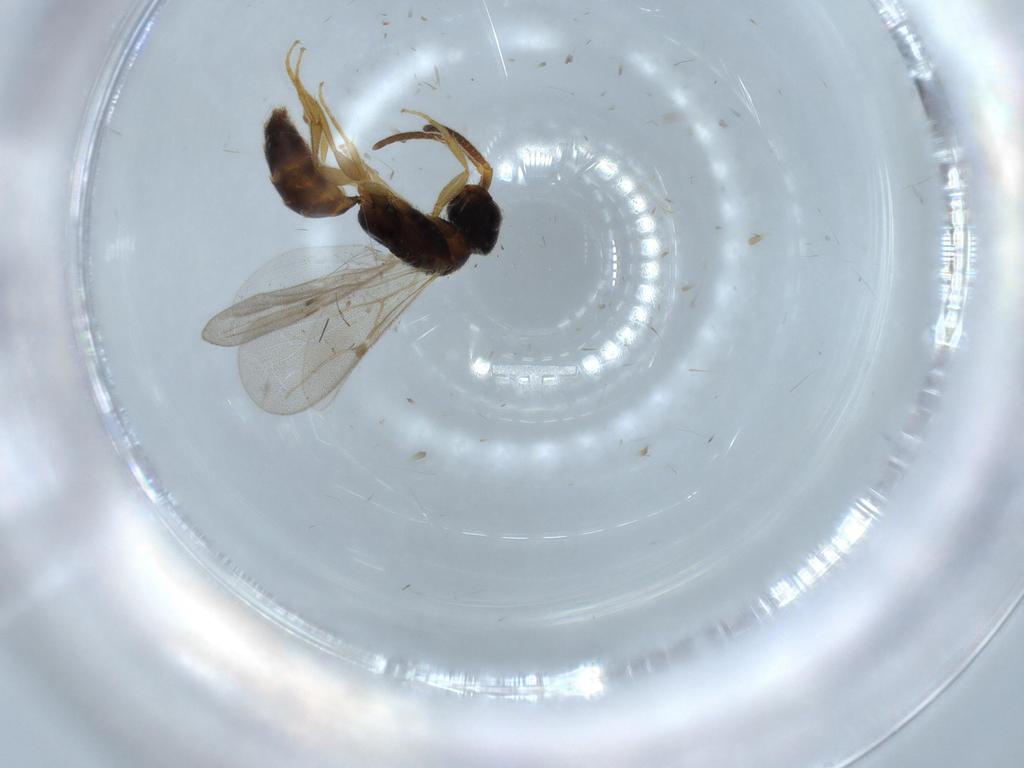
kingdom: Animalia
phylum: Arthropoda
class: Insecta
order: Hymenoptera
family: Bethylidae
